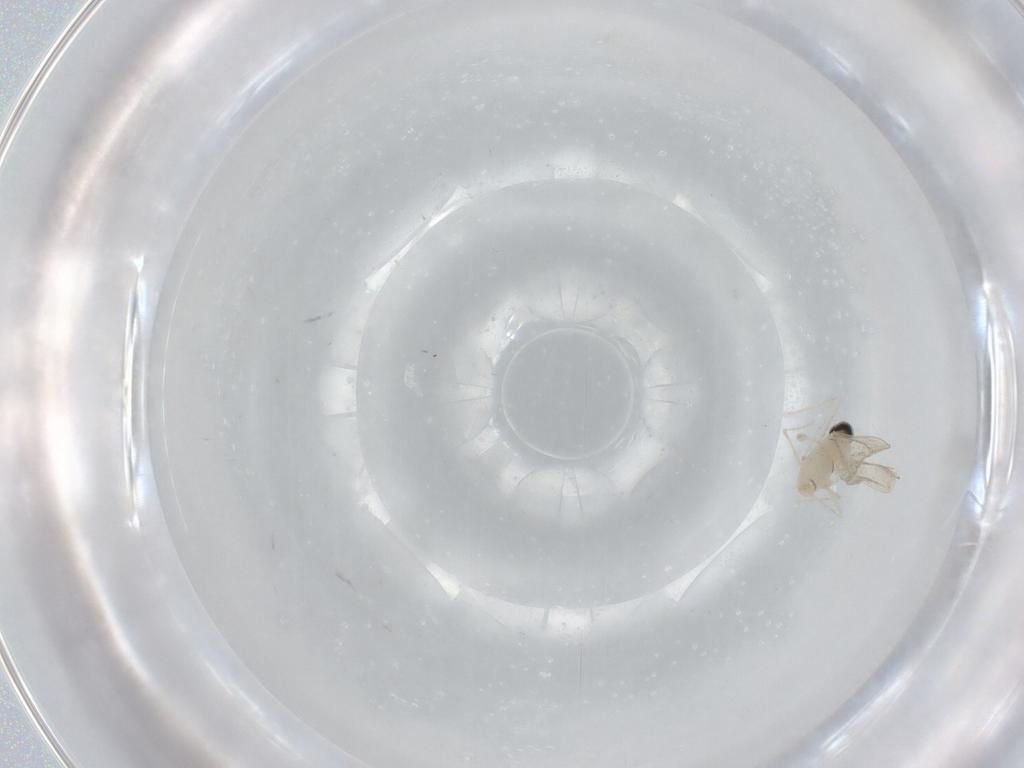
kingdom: Animalia
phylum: Arthropoda
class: Insecta
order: Diptera
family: Cecidomyiidae
